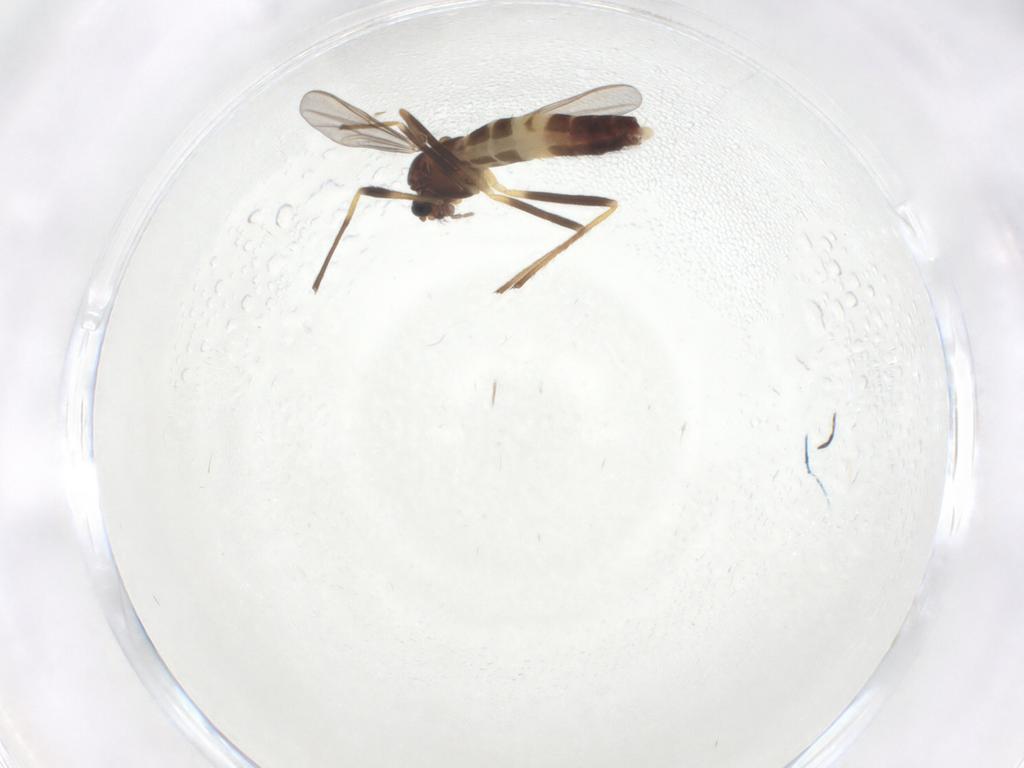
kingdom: Animalia
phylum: Arthropoda
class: Insecta
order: Diptera
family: Chironomidae
